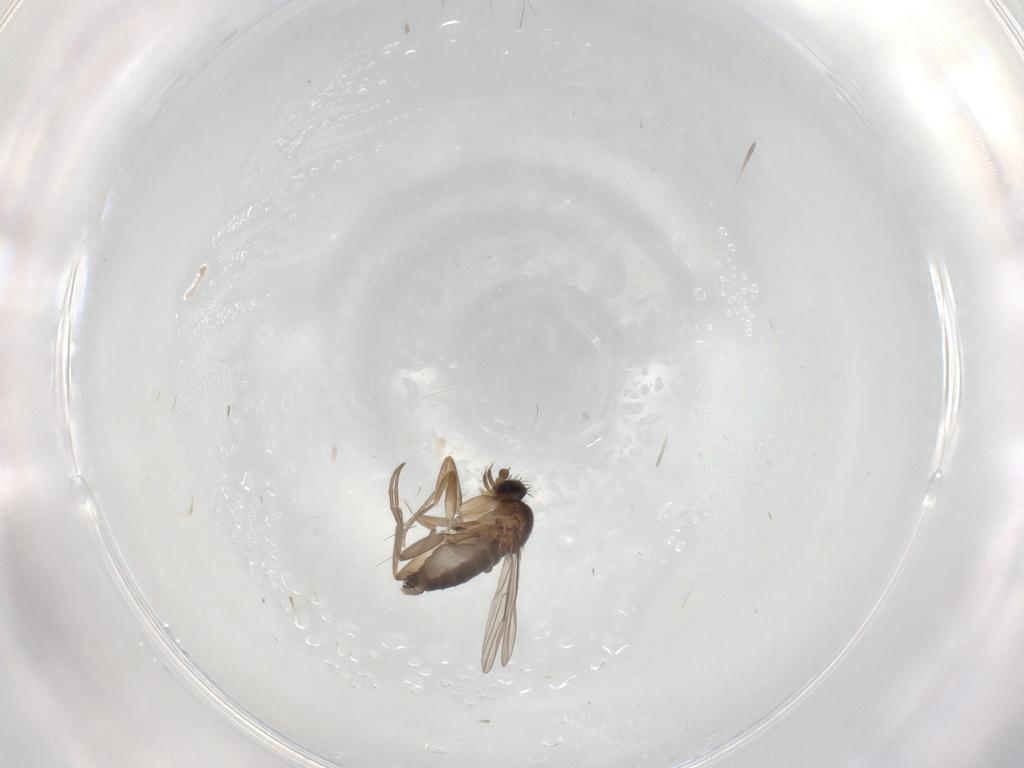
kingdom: Animalia
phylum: Arthropoda
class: Insecta
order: Diptera
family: Phoridae
